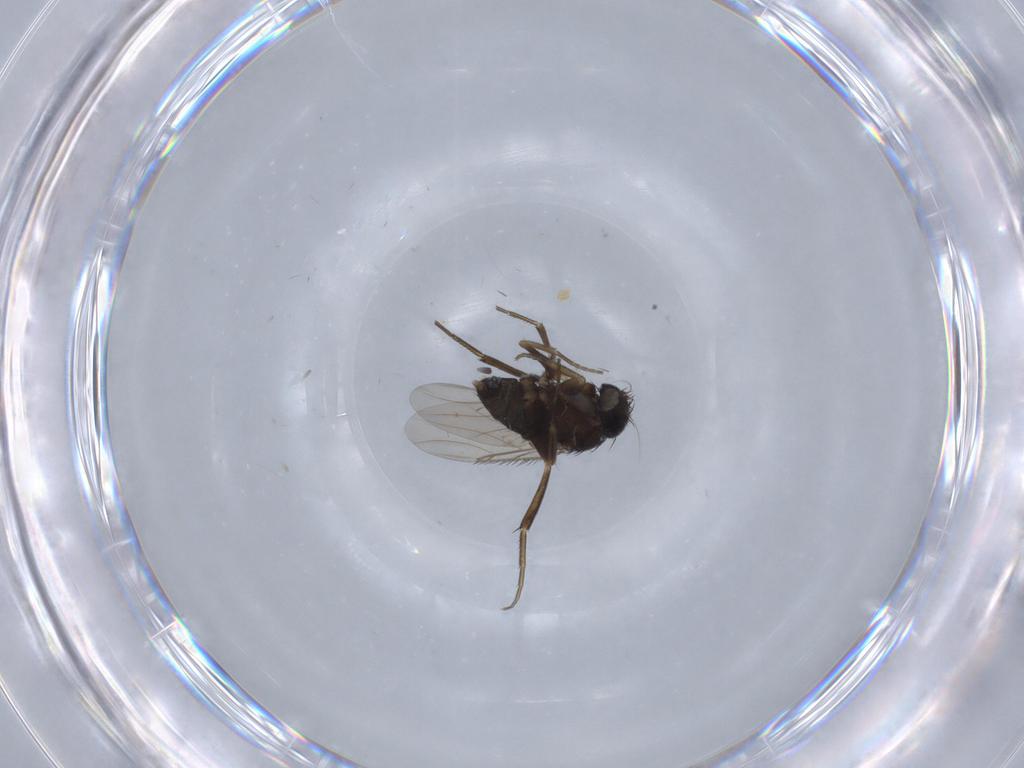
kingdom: Animalia
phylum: Arthropoda
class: Insecta
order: Diptera
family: Phoridae
